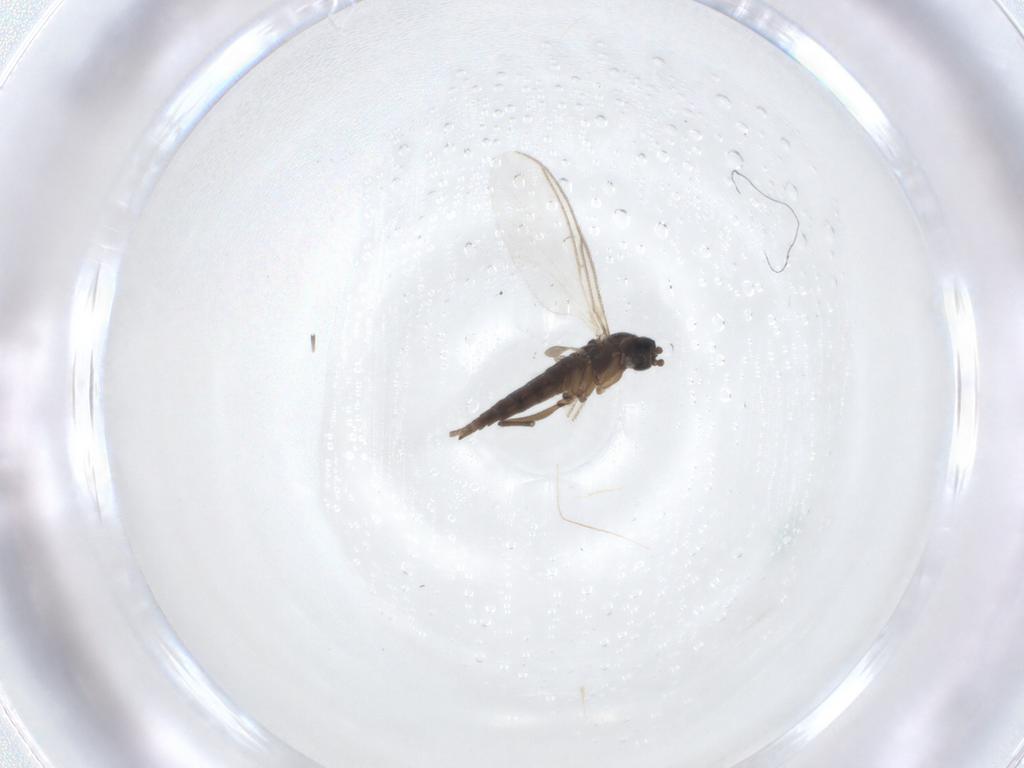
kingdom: Animalia
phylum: Arthropoda
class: Insecta
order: Diptera
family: Sciaridae
